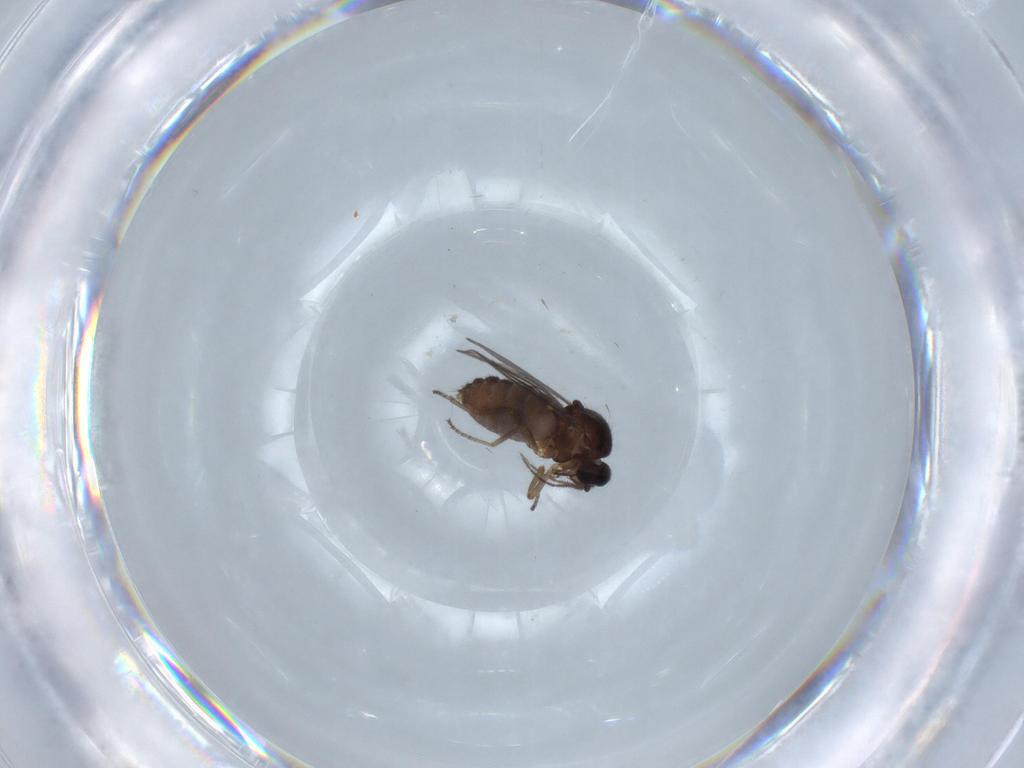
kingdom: Animalia
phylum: Arthropoda
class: Insecta
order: Diptera
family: Ceratopogonidae
